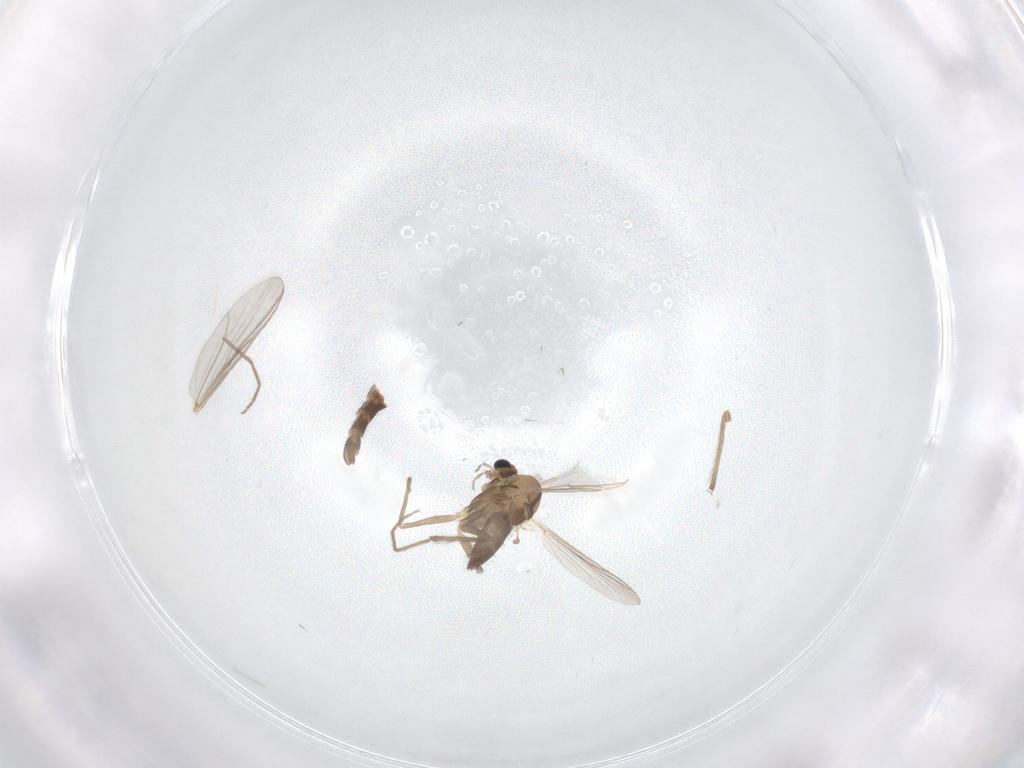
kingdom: Animalia
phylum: Arthropoda
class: Insecta
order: Diptera
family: Chironomidae
